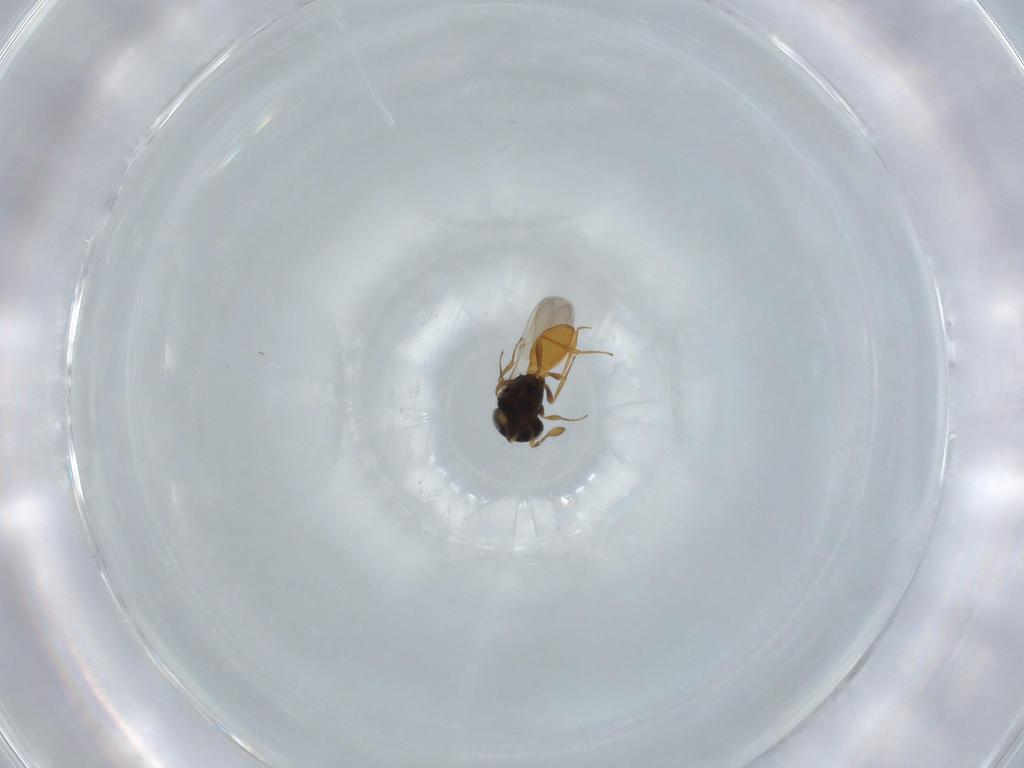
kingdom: Animalia
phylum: Arthropoda
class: Insecta
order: Hymenoptera
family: Scelionidae
